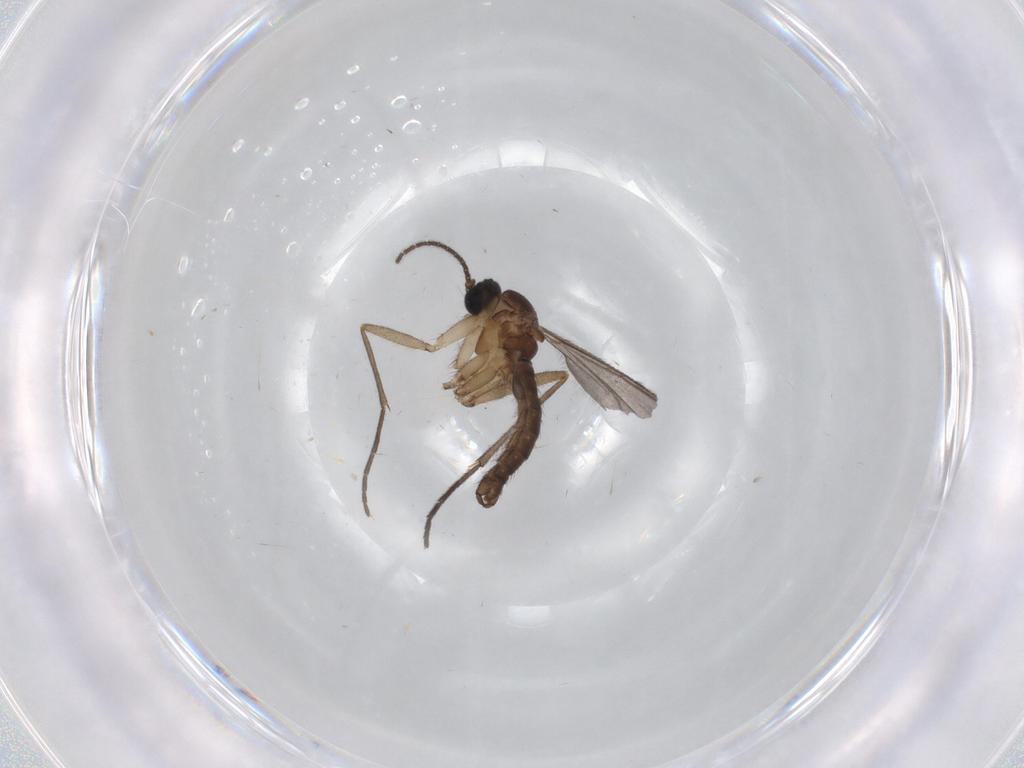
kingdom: Animalia
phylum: Arthropoda
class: Insecta
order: Diptera
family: Sciaridae
